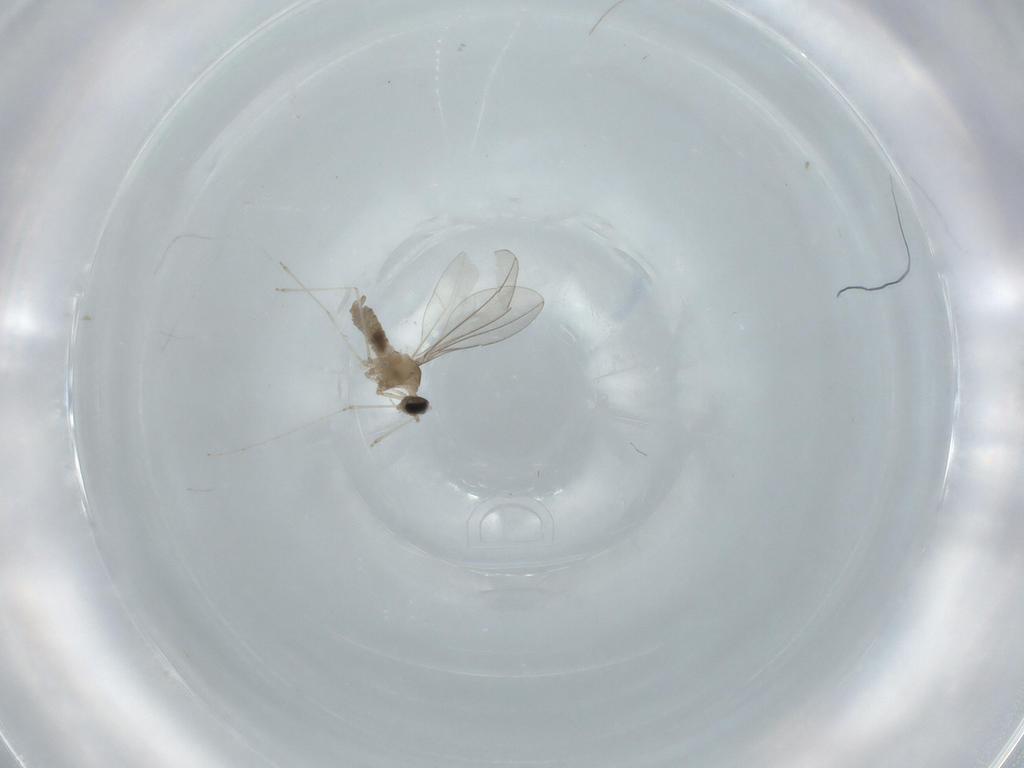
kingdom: Animalia
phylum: Arthropoda
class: Insecta
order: Diptera
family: Cecidomyiidae
